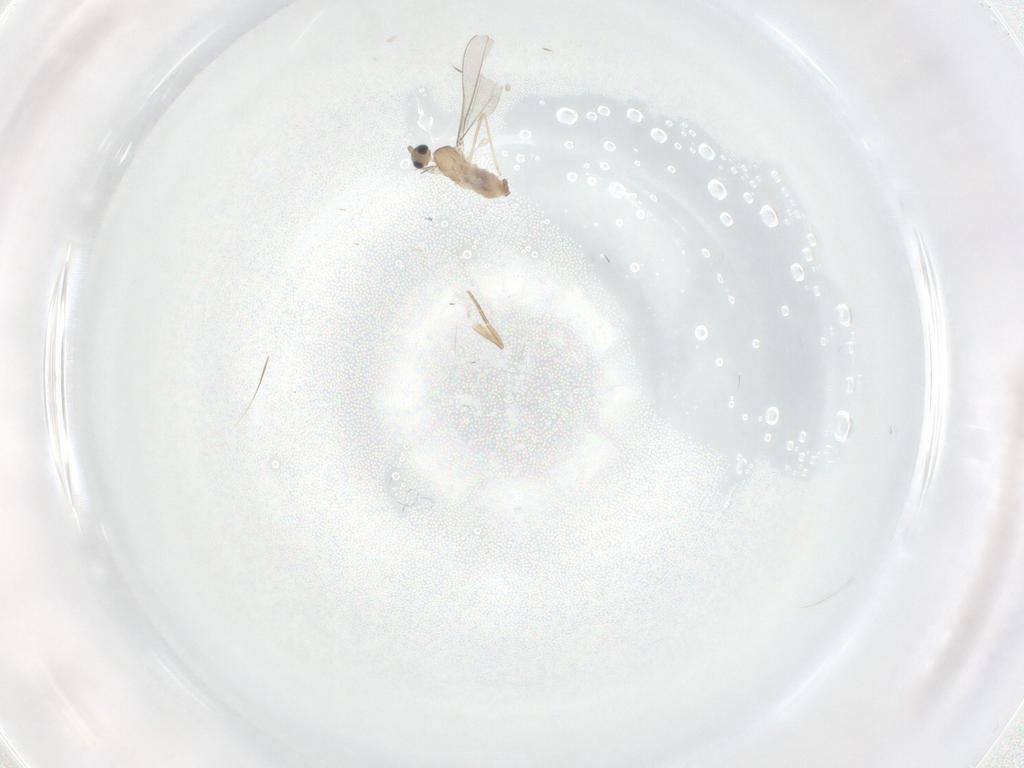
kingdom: Animalia
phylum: Arthropoda
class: Insecta
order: Diptera
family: Cecidomyiidae
